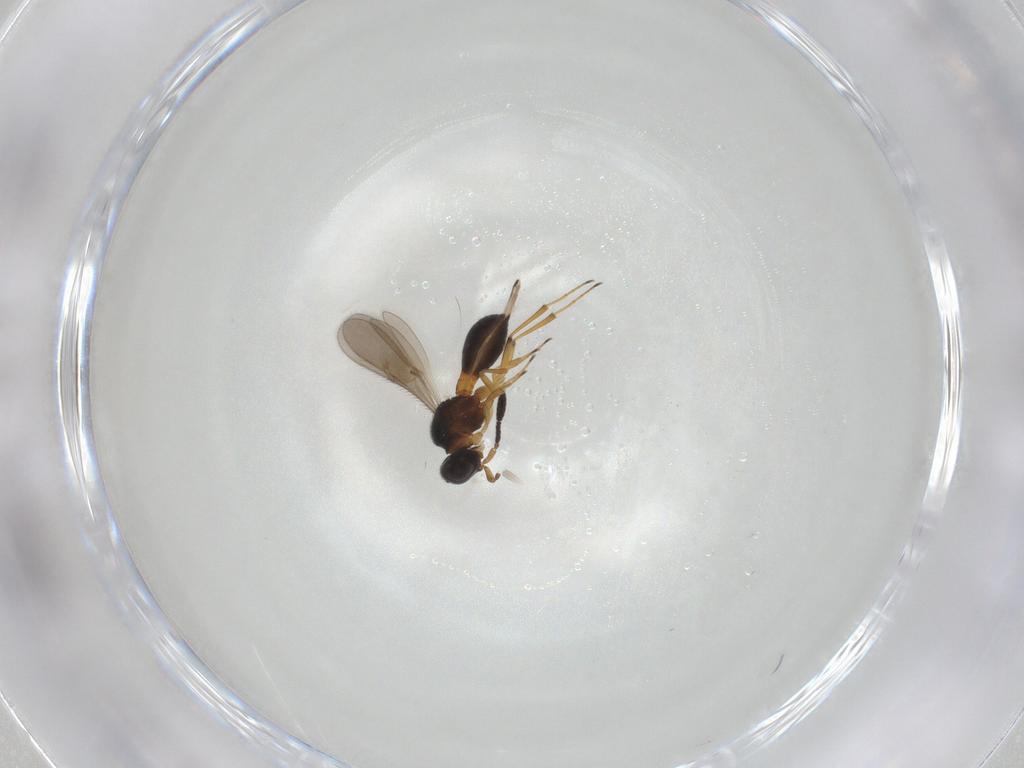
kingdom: Animalia
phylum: Arthropoda
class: Insecta
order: Hymenoptera
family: Scelionidae
